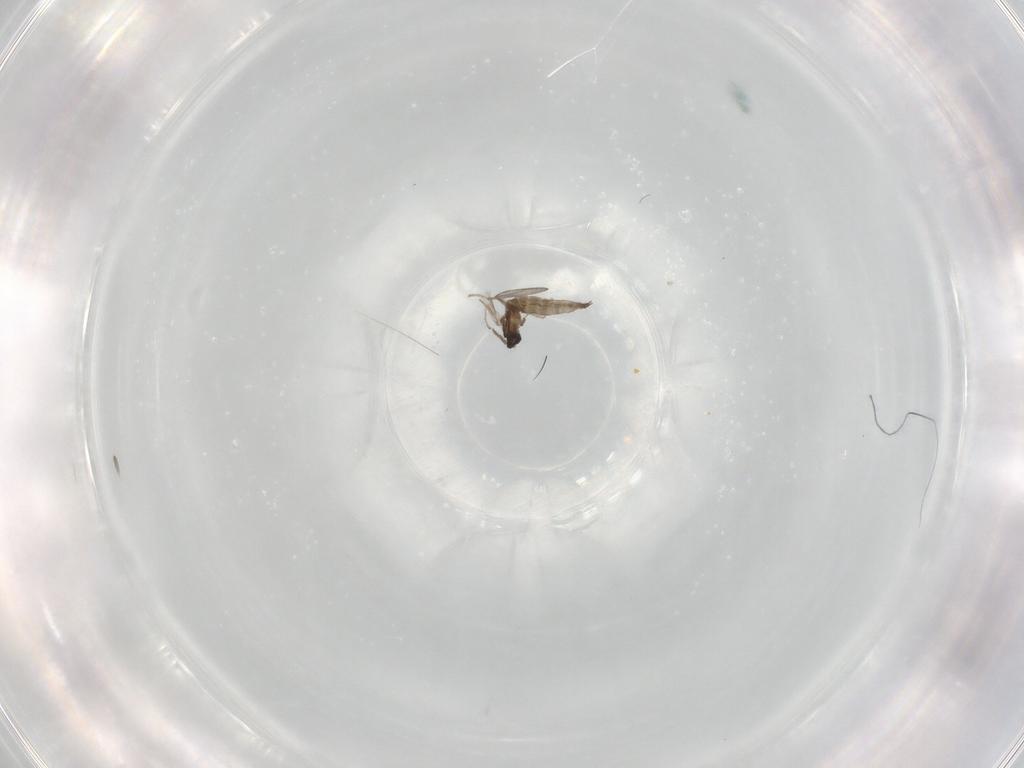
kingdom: Animalia
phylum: Arthropoda
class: Insecta
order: Diptera
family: Cecidomyiidae
